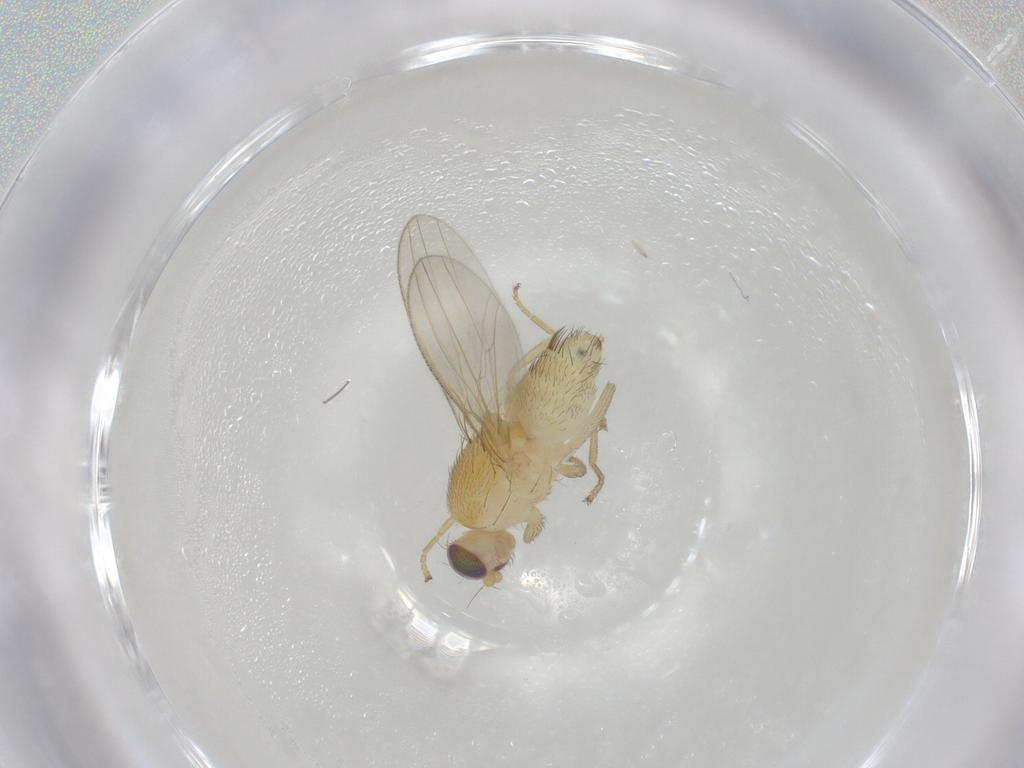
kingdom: Animalia
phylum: Arthropoda
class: Insecta
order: Diptera
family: Chyromyidae
